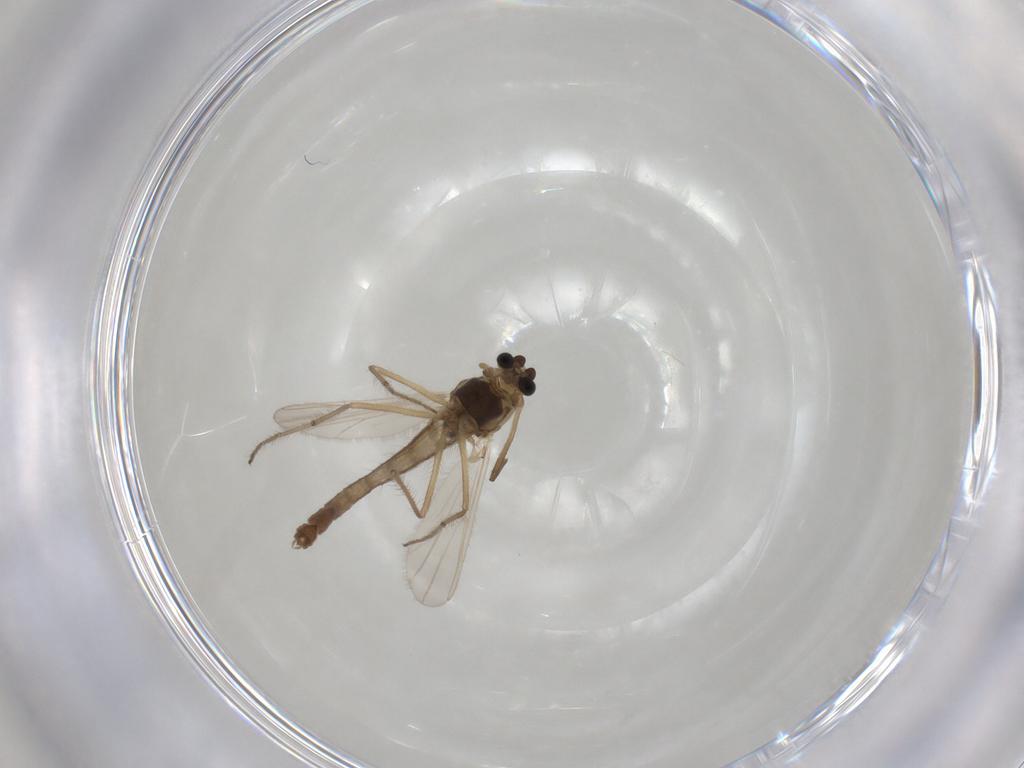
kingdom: Animalia
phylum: Arthropoda
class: Insecta
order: Diptera
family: Chironomidae
